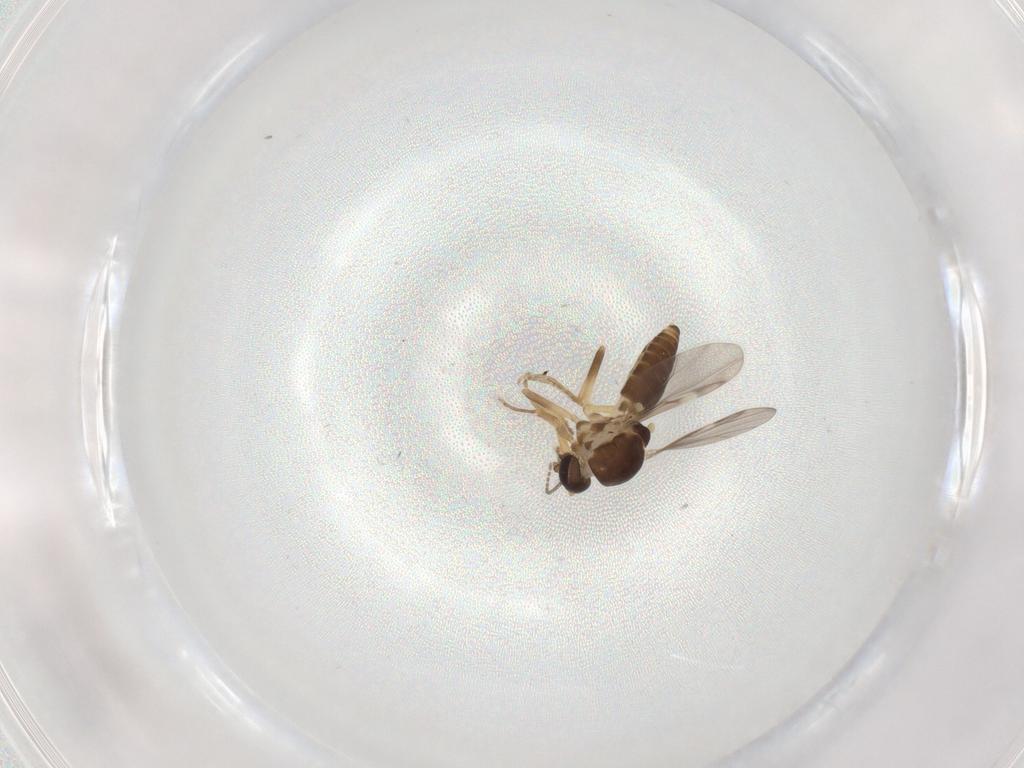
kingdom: Animalia
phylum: Arthropoda
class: Insecta
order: Diptera
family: Ceratopogonidae
